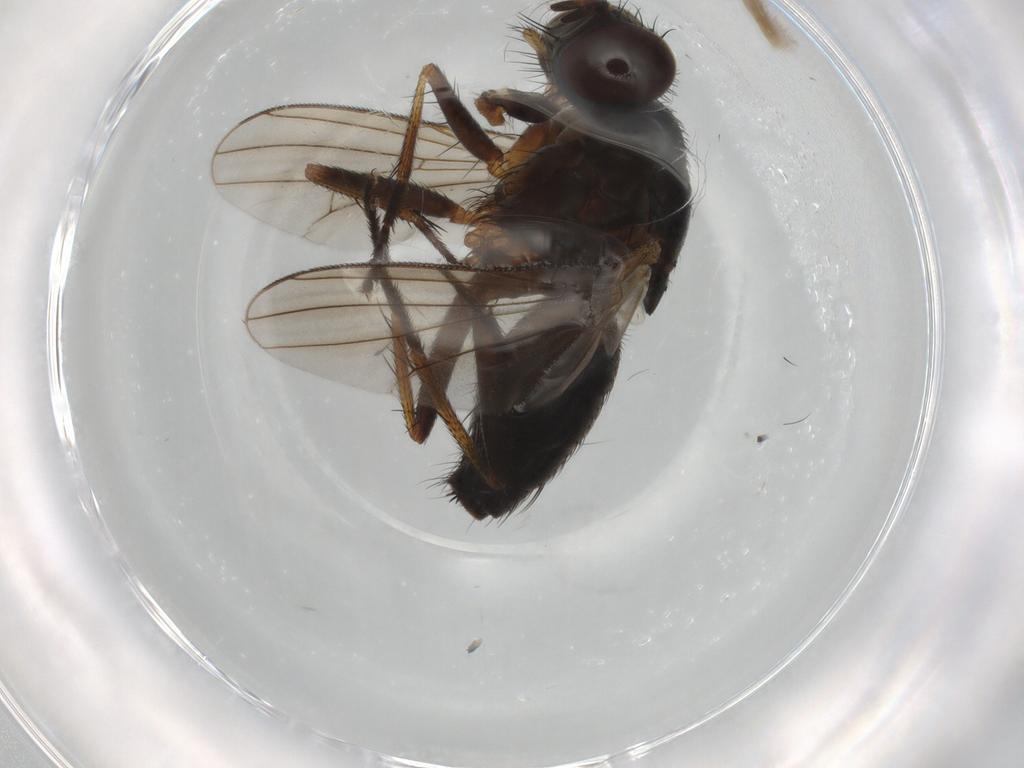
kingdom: Animalia
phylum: Arthropoda
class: Insecta
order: Diptera
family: Muscidae
